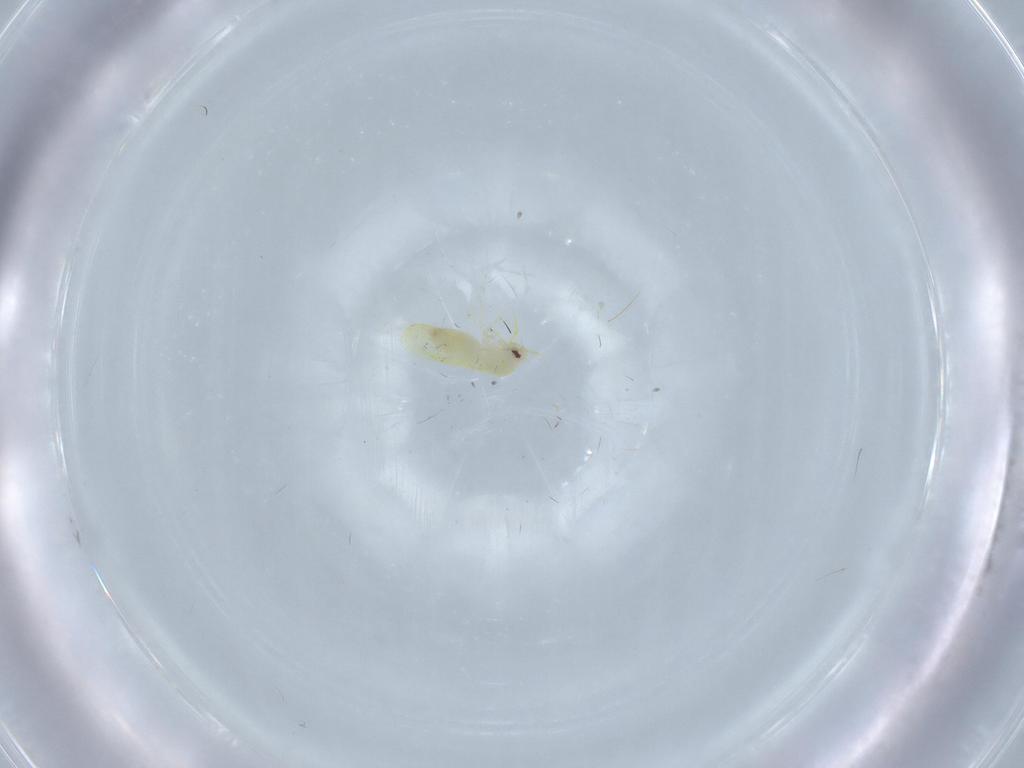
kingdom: Animalia
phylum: Arthropoda
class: Insecta
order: Hemiptera
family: Aleyrodidae
